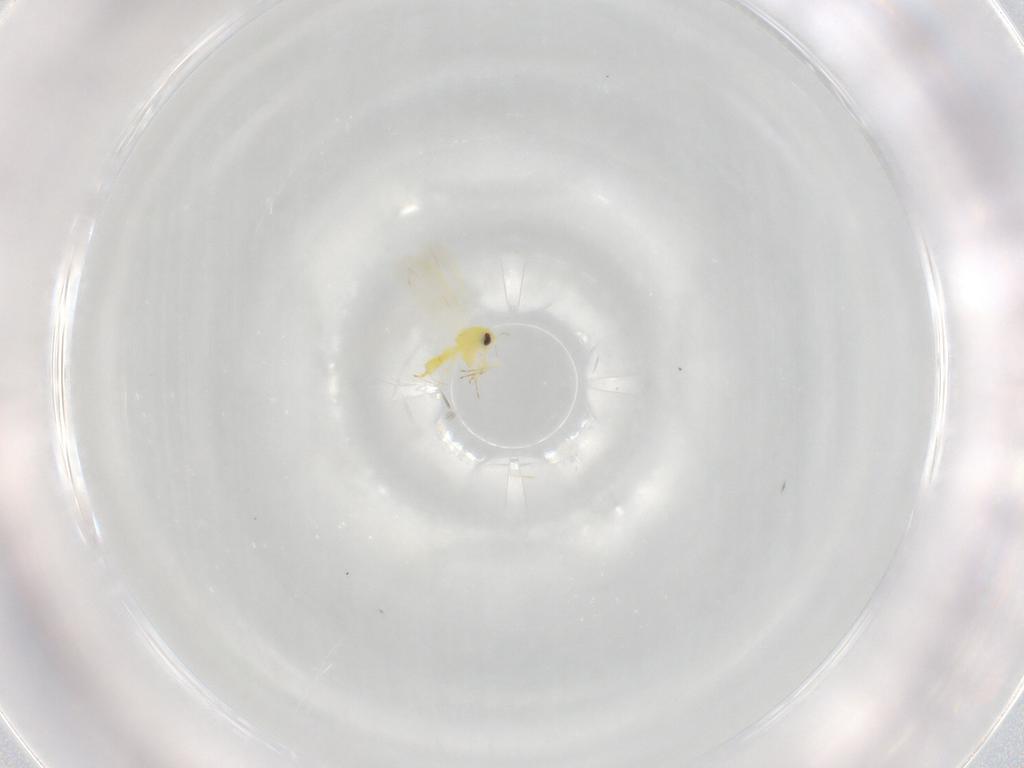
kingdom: Animalia
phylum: Arthropoda
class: Insecta
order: Hemiptera
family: Aleyrodidae
